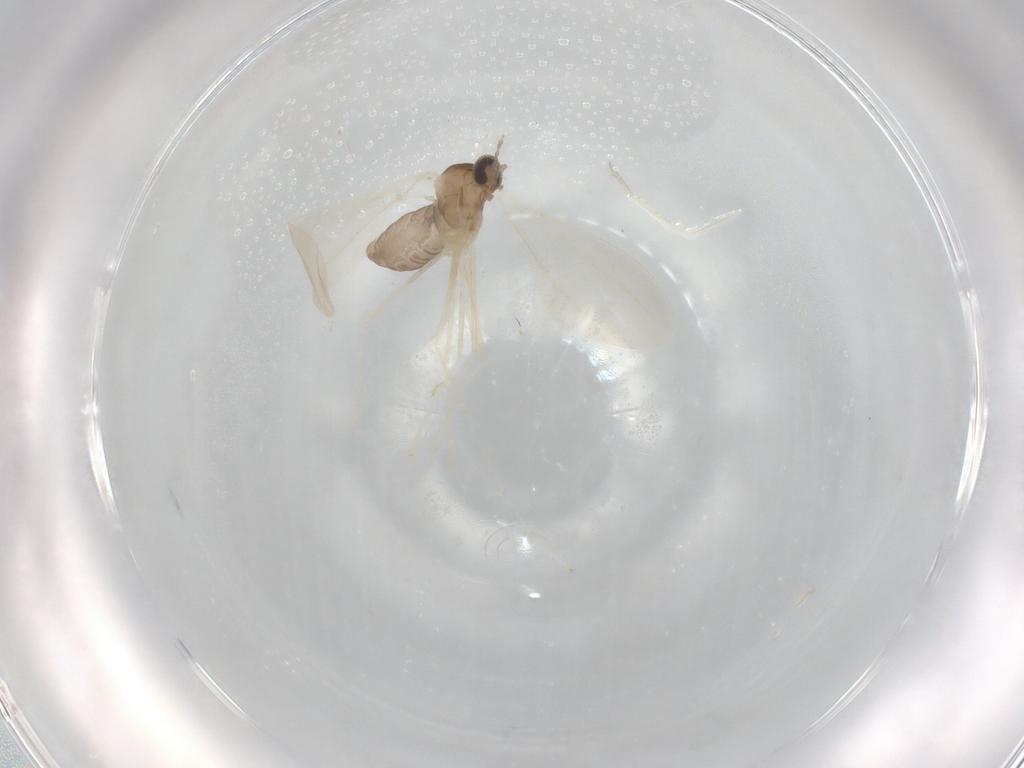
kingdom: Animalia
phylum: Arthropoda
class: Insecta
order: Diptera
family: Cecidomyiidae
